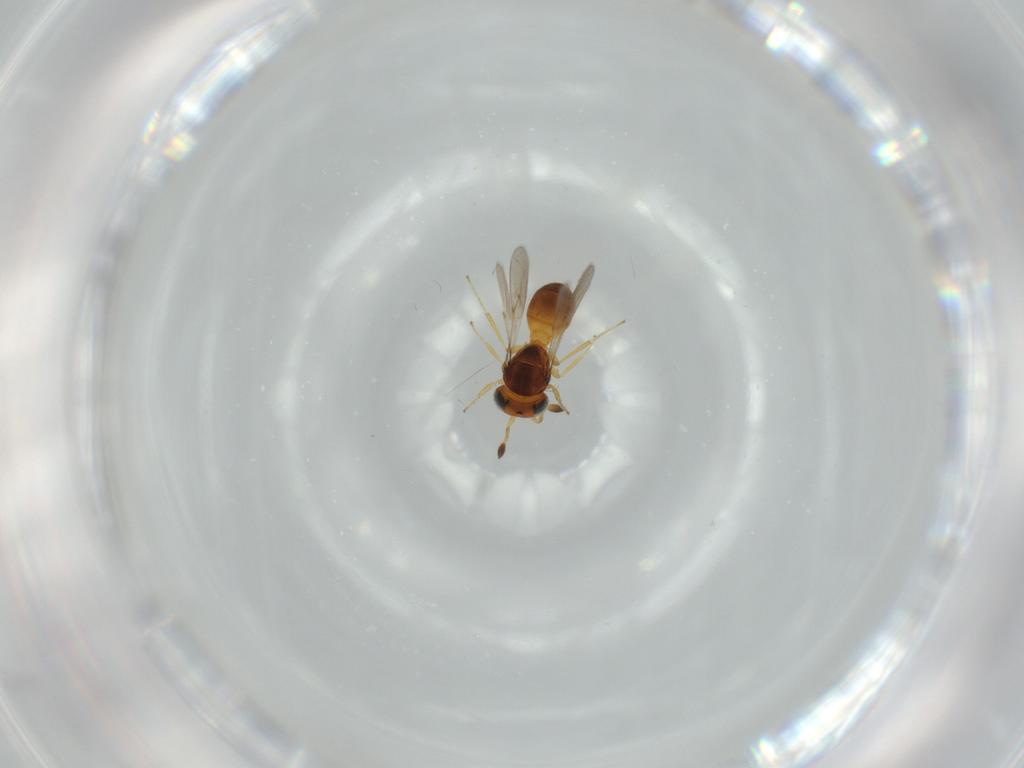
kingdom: Animalia
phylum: Arthropoda
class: Insecta
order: Hymenoptera
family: Scelionidae
